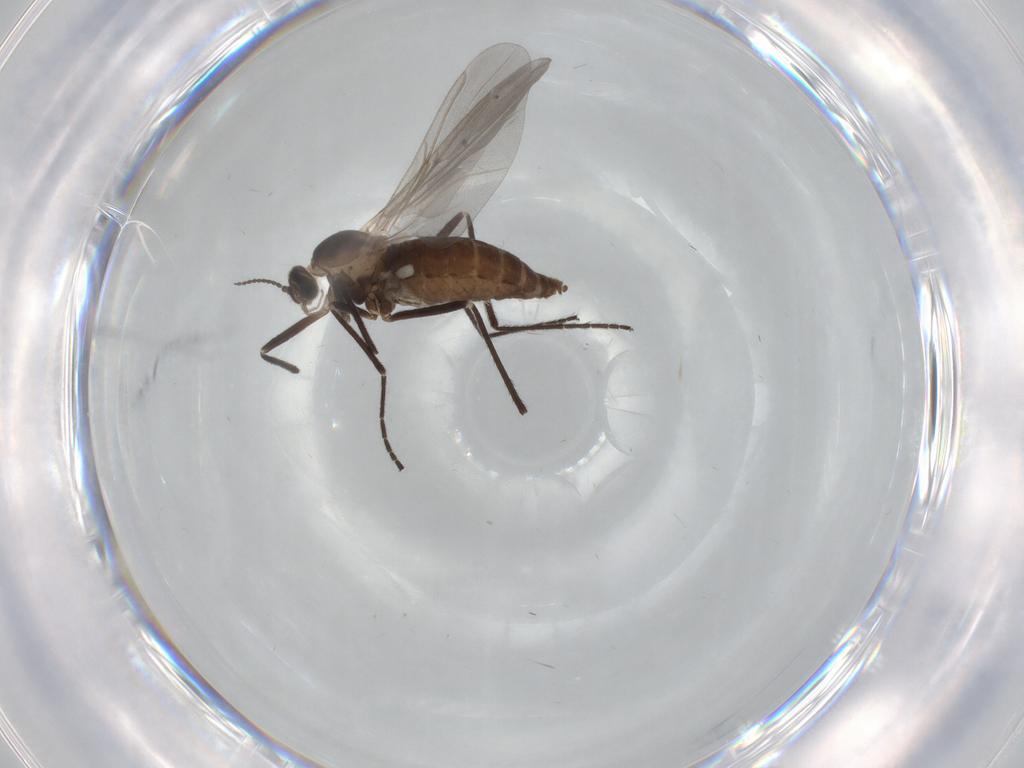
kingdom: Animalia
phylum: Arthropoda
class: Insecta
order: Diptera
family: Cecidomyiidae
